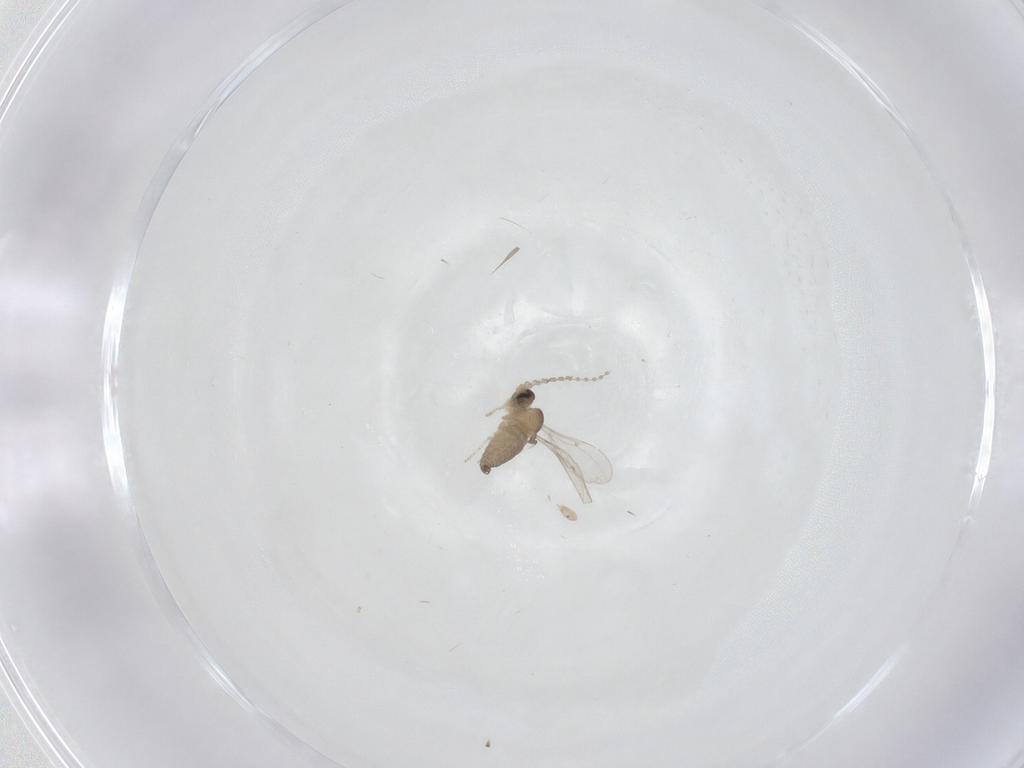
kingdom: Animalia
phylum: Arthropoda
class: Insecta
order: Diptera
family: Cecidomyiidae
